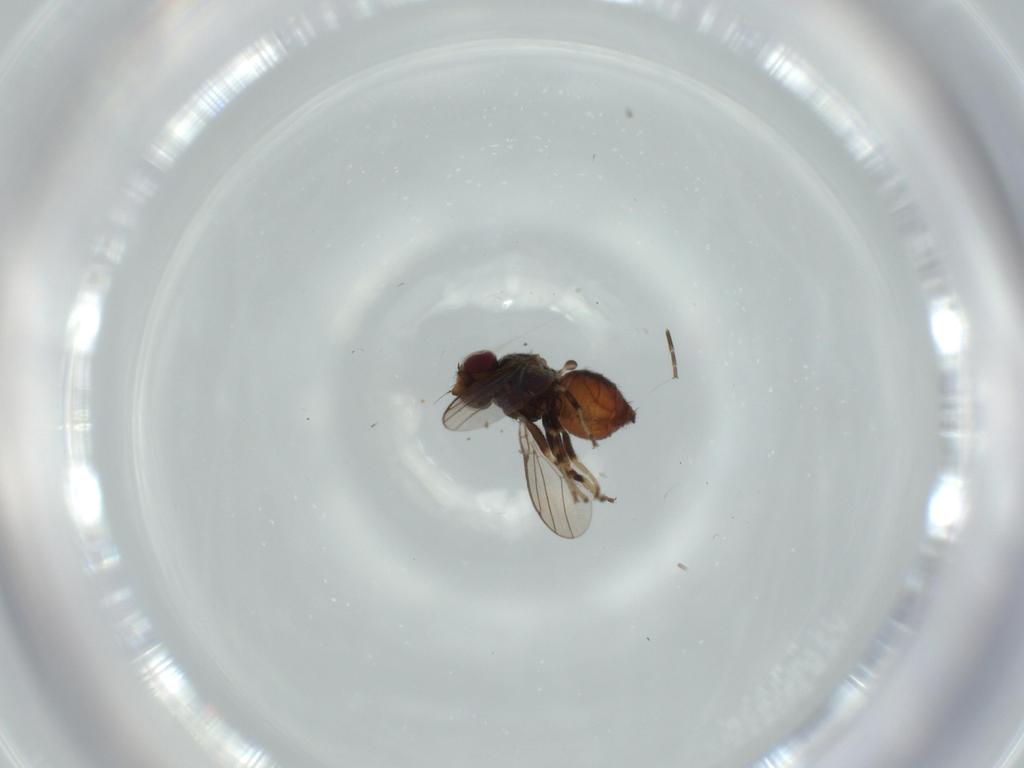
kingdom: Animalia
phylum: Arthropoda
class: Insecta
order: Diptera
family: Chloropidae
